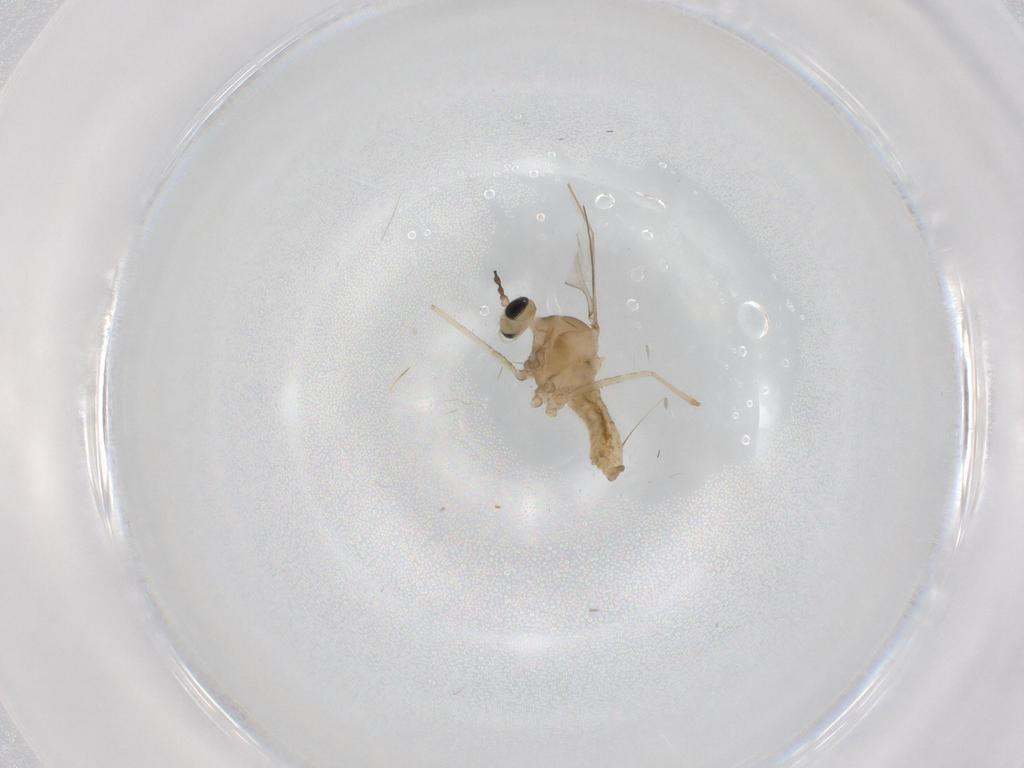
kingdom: Animalia
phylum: Arthropoda
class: Insecta
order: Diptera
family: Cecidomyiidae
